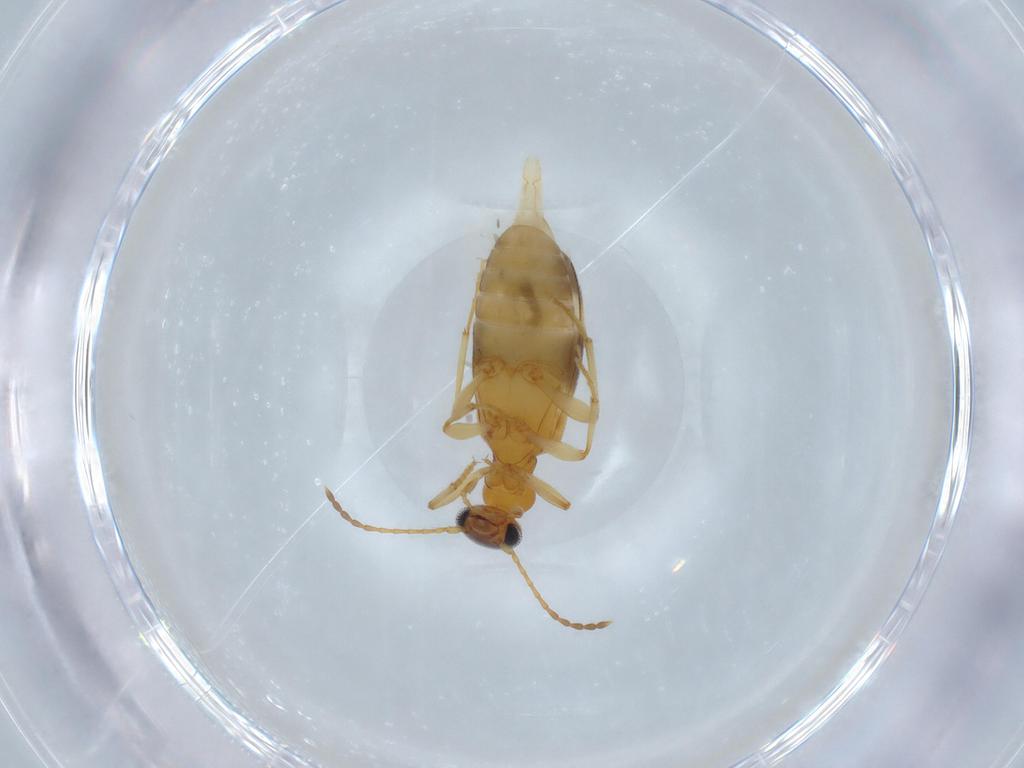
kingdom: Animalia
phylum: Arthropoda
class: Insecta
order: Coleoptera
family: Anthicidae
